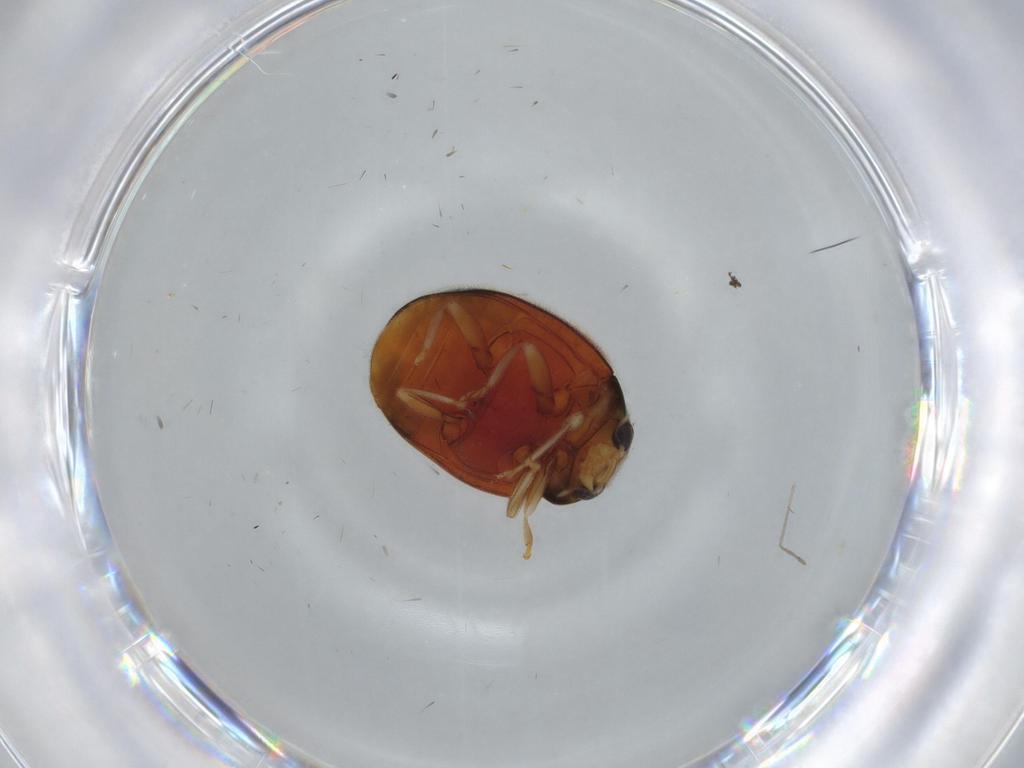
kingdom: Animalia
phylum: Arthropoda
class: Insecta
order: Coleoptera
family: Coccinellidae
